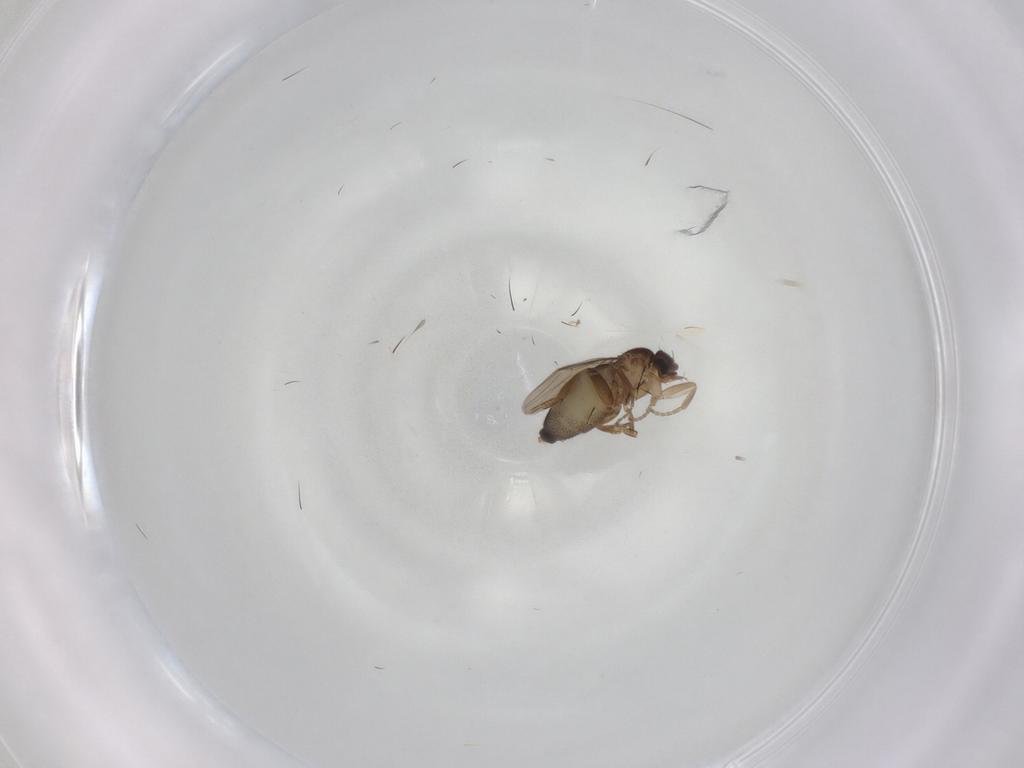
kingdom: Animalia
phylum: Arthropoda
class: Insecta
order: Diptera
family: Phoridae
